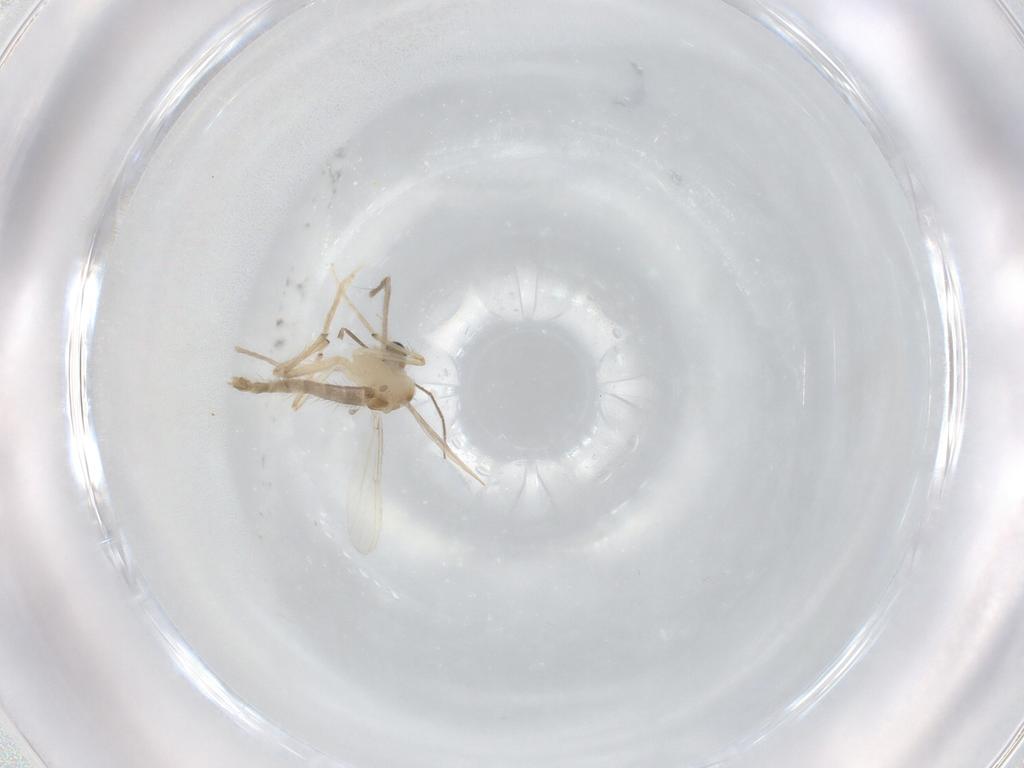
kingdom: Animalia
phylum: Arthropoda
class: Insecta
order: Diptera
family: Chironomidae
